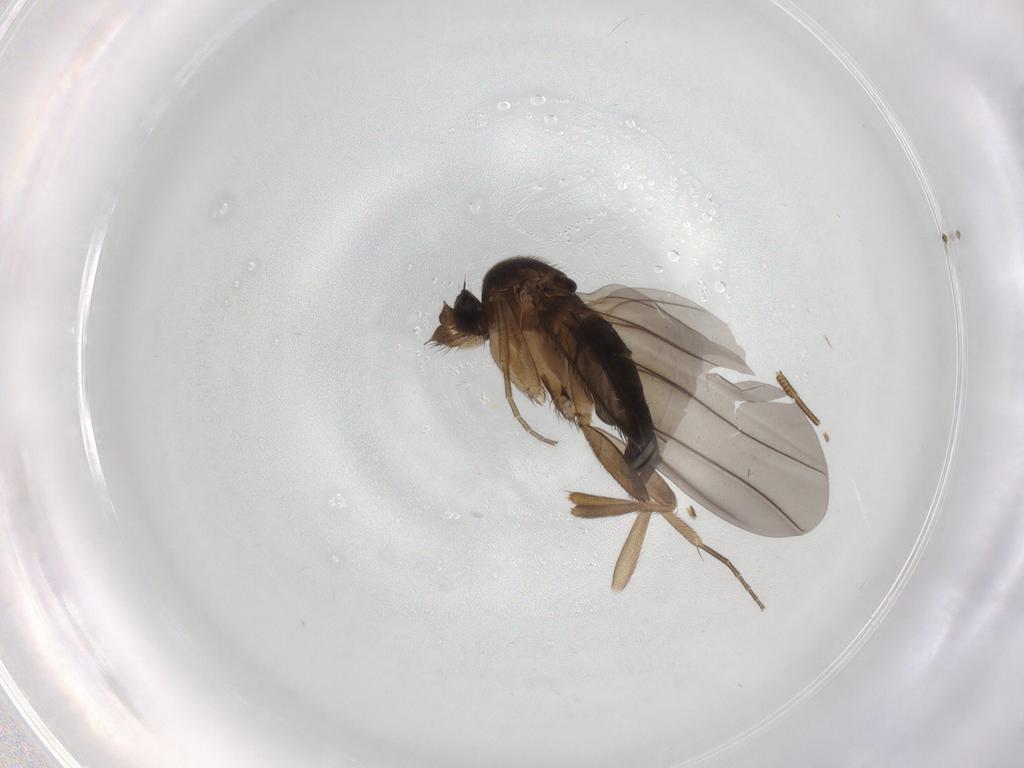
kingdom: Animalia
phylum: Arthropoda
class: Insecta
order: Diptera
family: Phoridae
